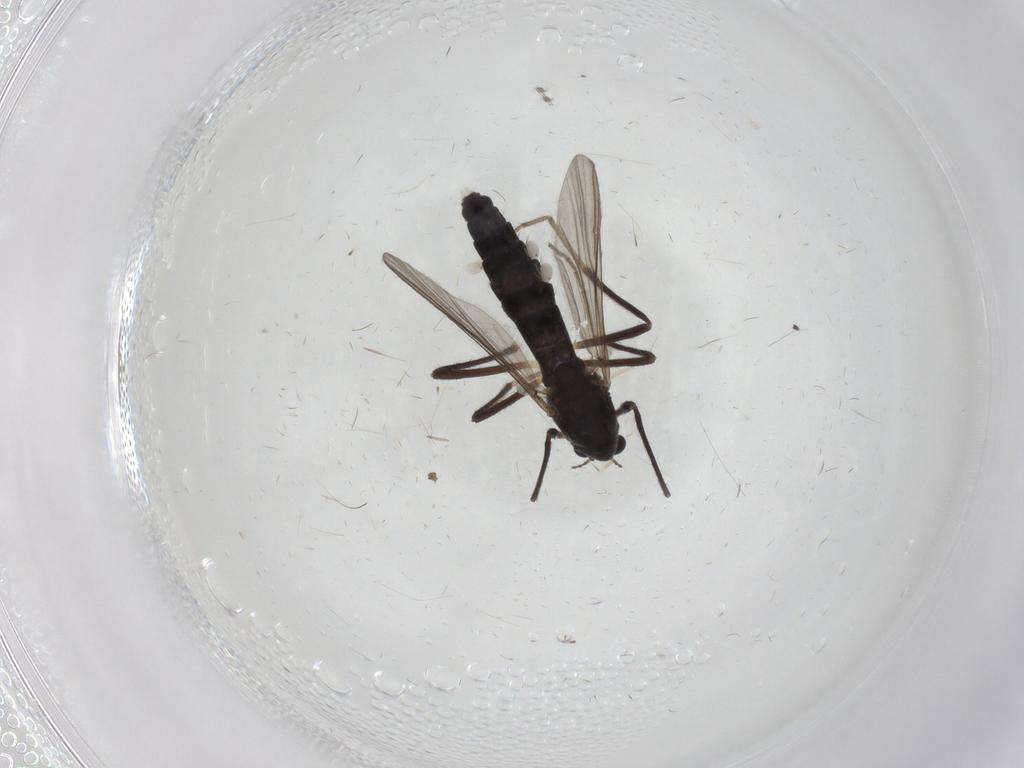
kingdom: Animalia
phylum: Arthropoda
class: Insecta
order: Diptera
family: Chironomidae
